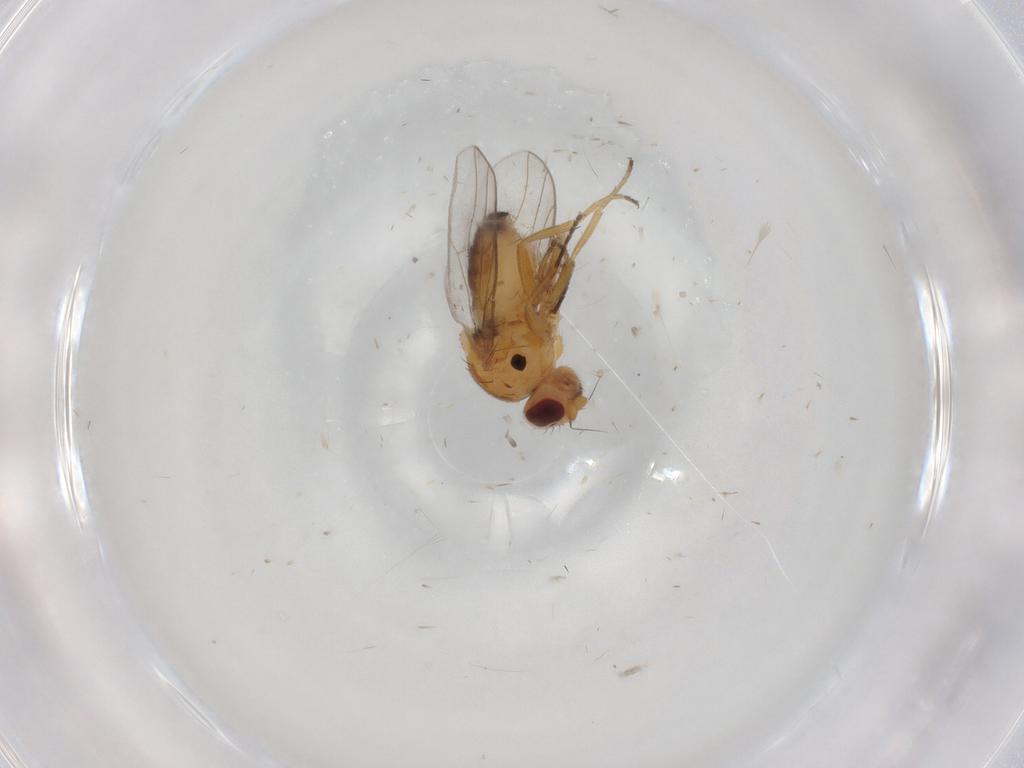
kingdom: Animalia
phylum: Arthropoda
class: Insecta
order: Diptera
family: Chloropidae
